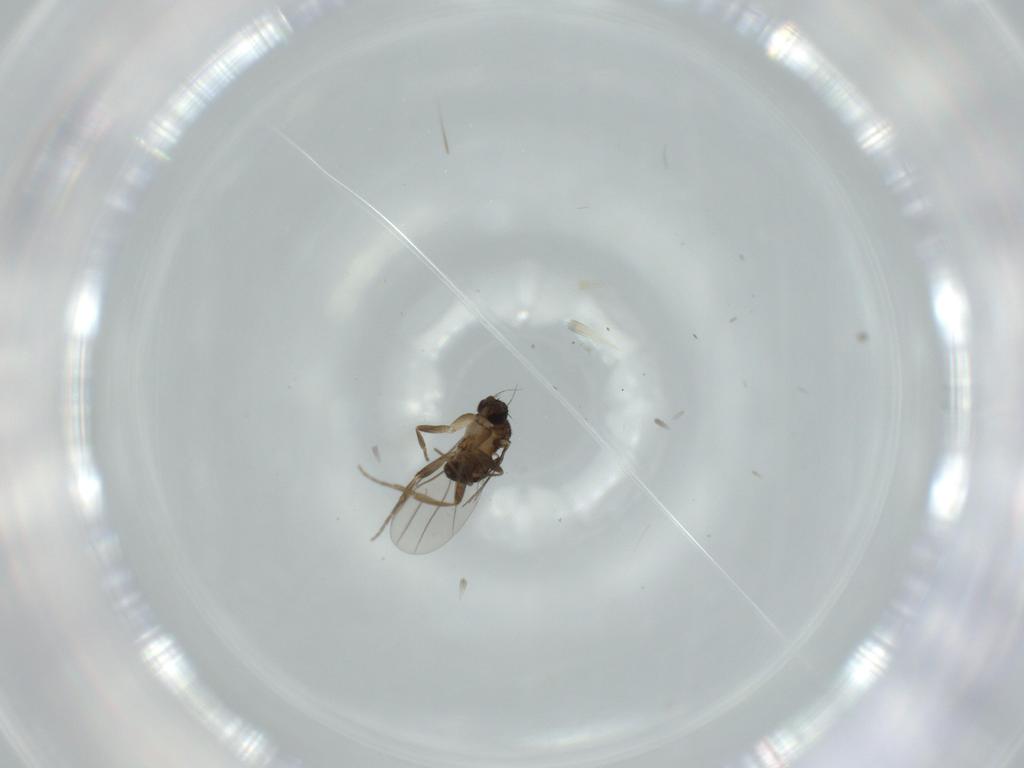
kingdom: Animalia
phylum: Arthropoda
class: Insecta
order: Diptera
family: Phoridae
